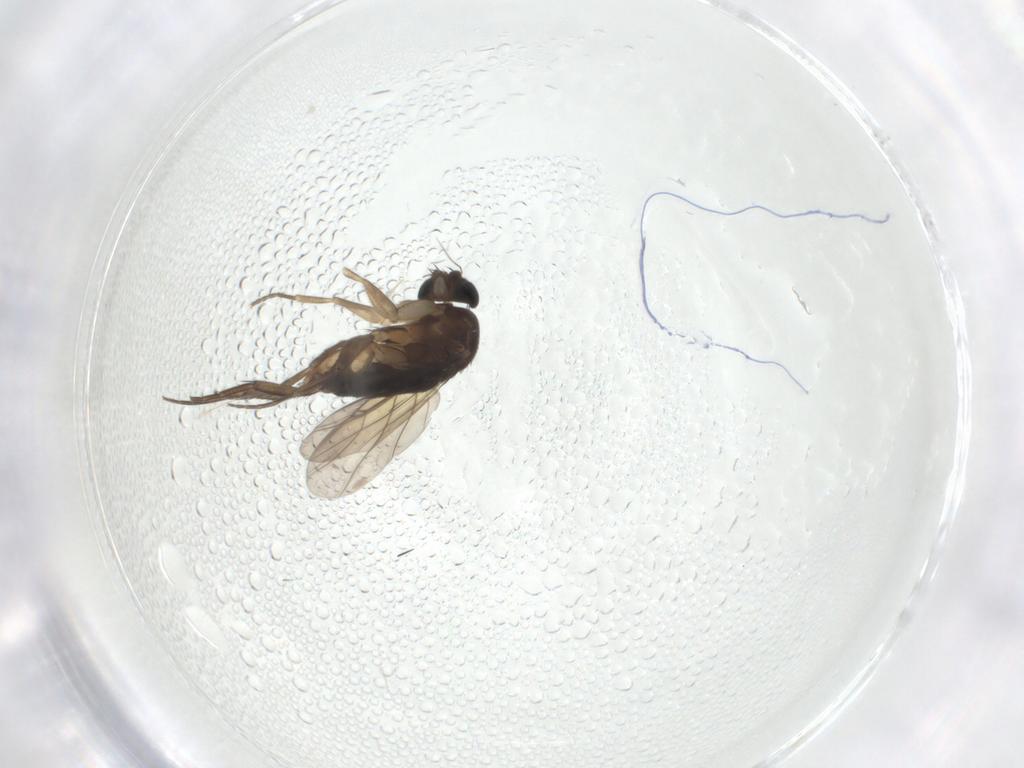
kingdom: Animalia
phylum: Arthropoda
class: Insecta
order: Diptera
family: Phoridae
